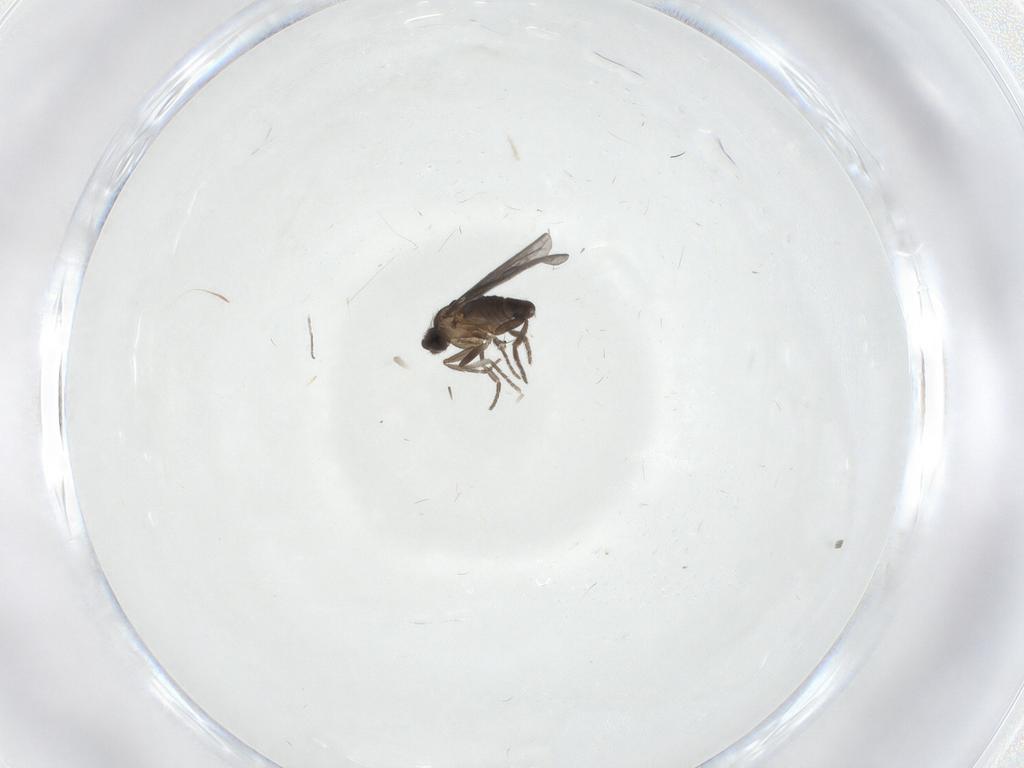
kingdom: Animalia
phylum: Arthropoda
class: Insecta
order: Diptera
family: Phoridae
